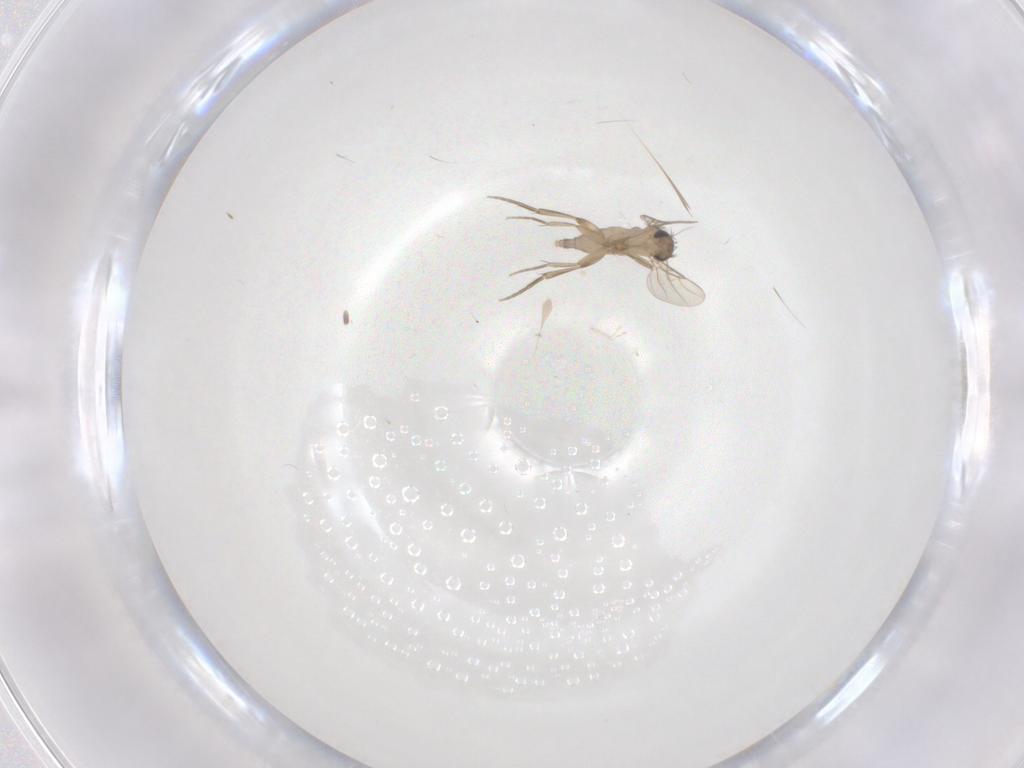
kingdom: Animalia
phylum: Arthropoda
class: Insecta
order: Diptera
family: Phoridae
